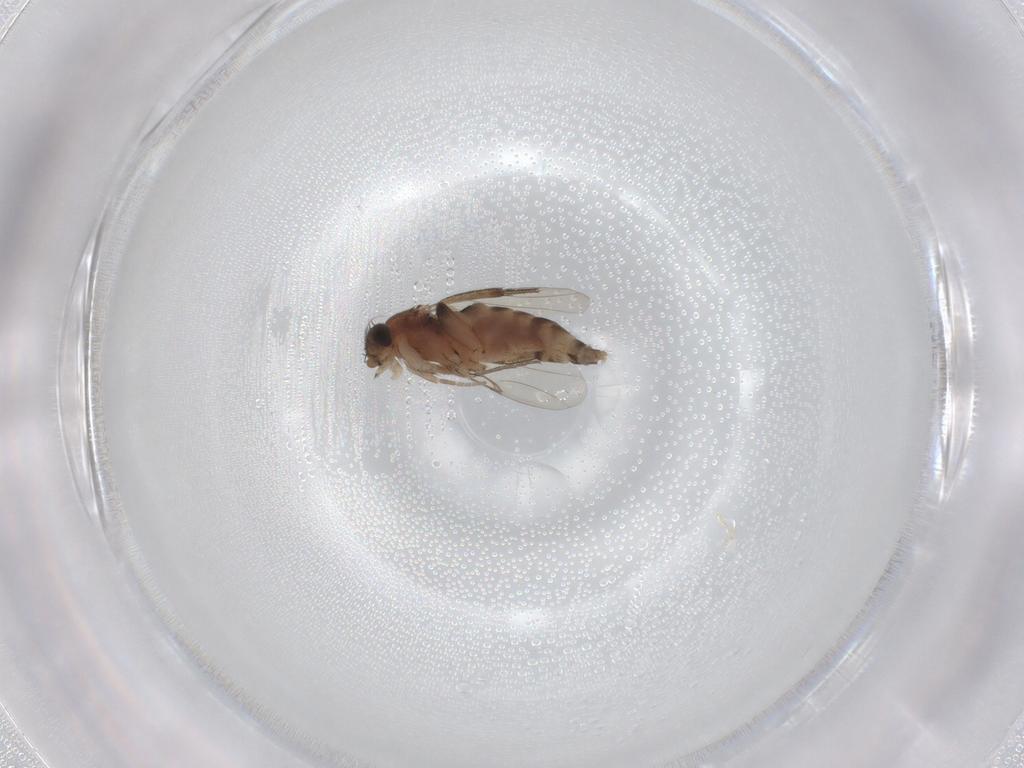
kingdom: Animalia
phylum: Arthropoda
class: Insecta
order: Diptera
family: Phoridae
